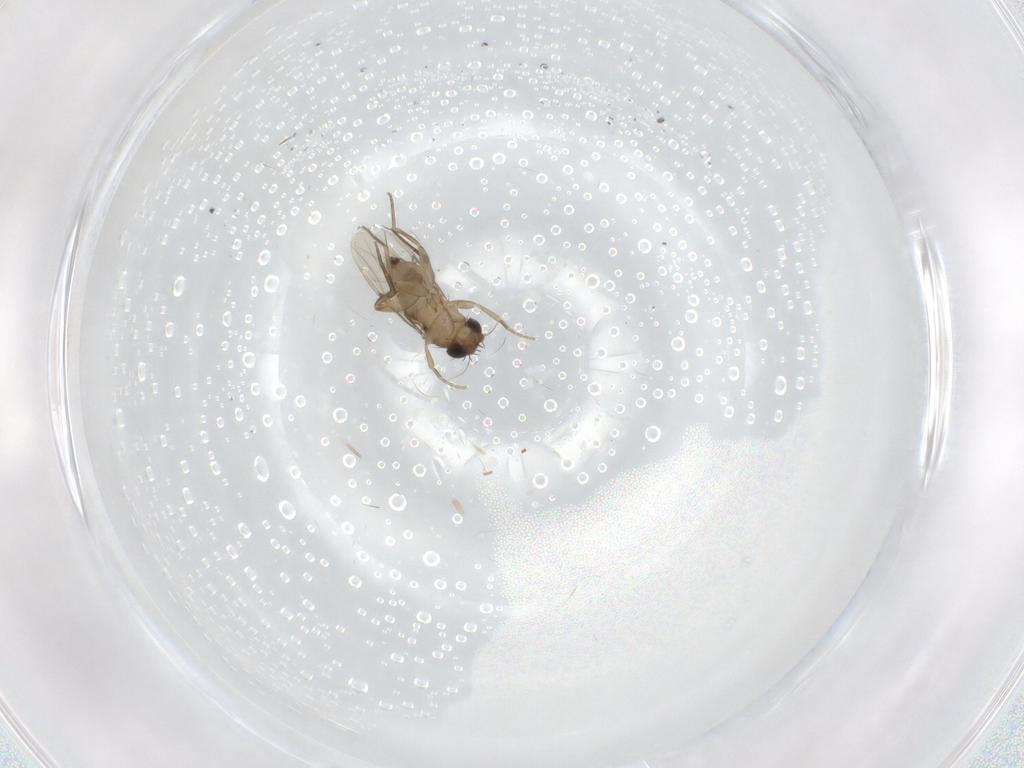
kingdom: Animalia
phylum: Arthropoda
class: Insecta
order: Diptera
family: Phoridae
